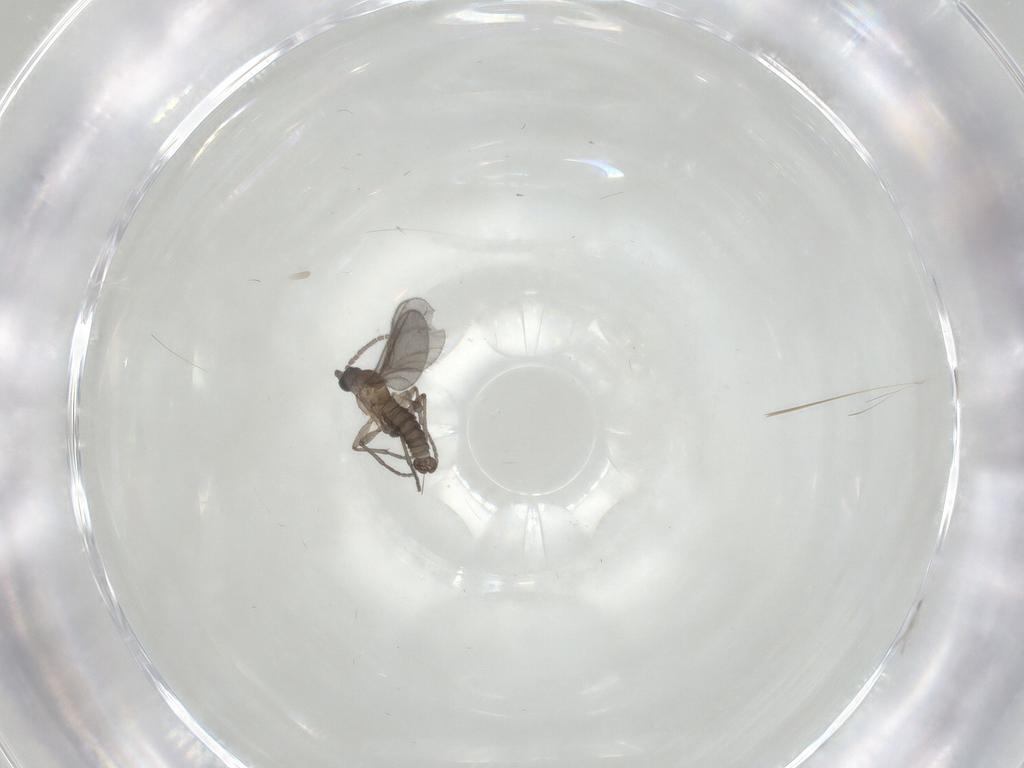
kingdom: Animalia
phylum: Arthropoda
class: Insecta
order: Diptera
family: Sciaridae
